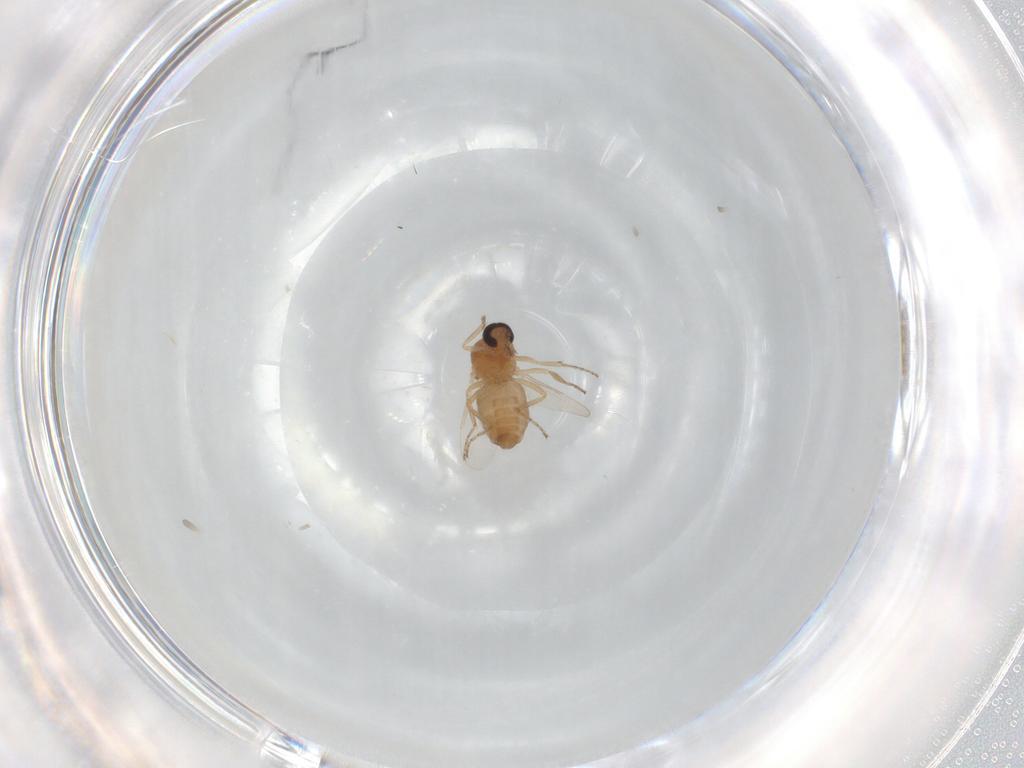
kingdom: Animalia
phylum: Arthropoda
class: Insecta
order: Diptera
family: Ceratopogonidae
